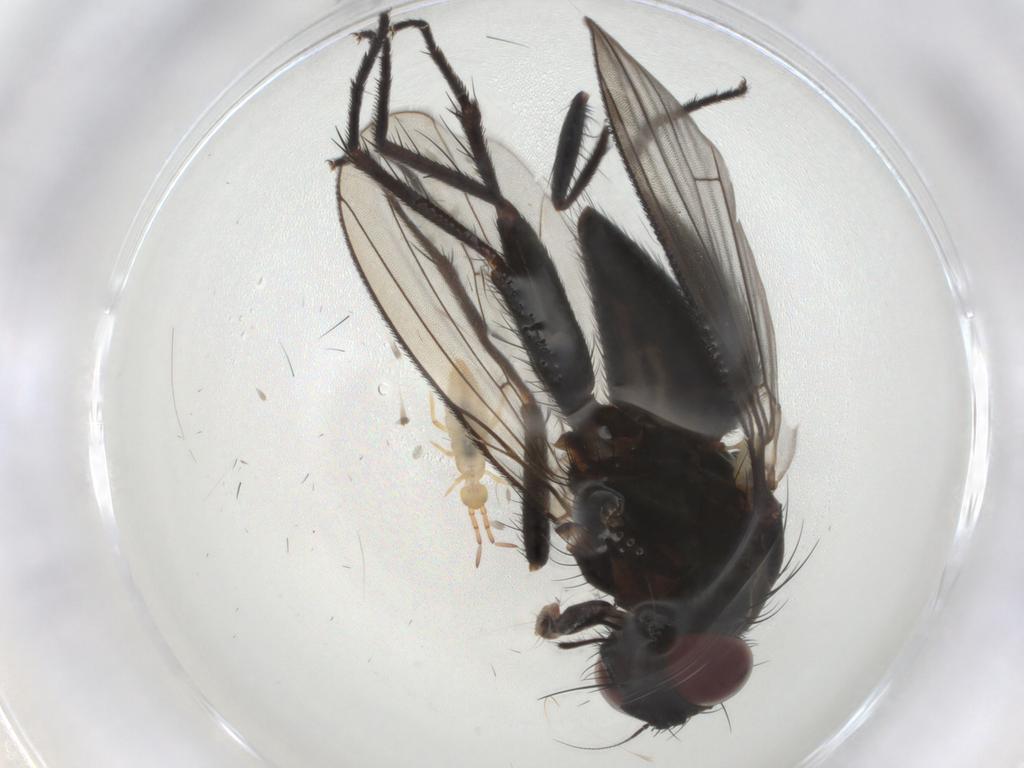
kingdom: Animalia
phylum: Arthropoda
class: Insecta
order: Diptera
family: Muscidae
